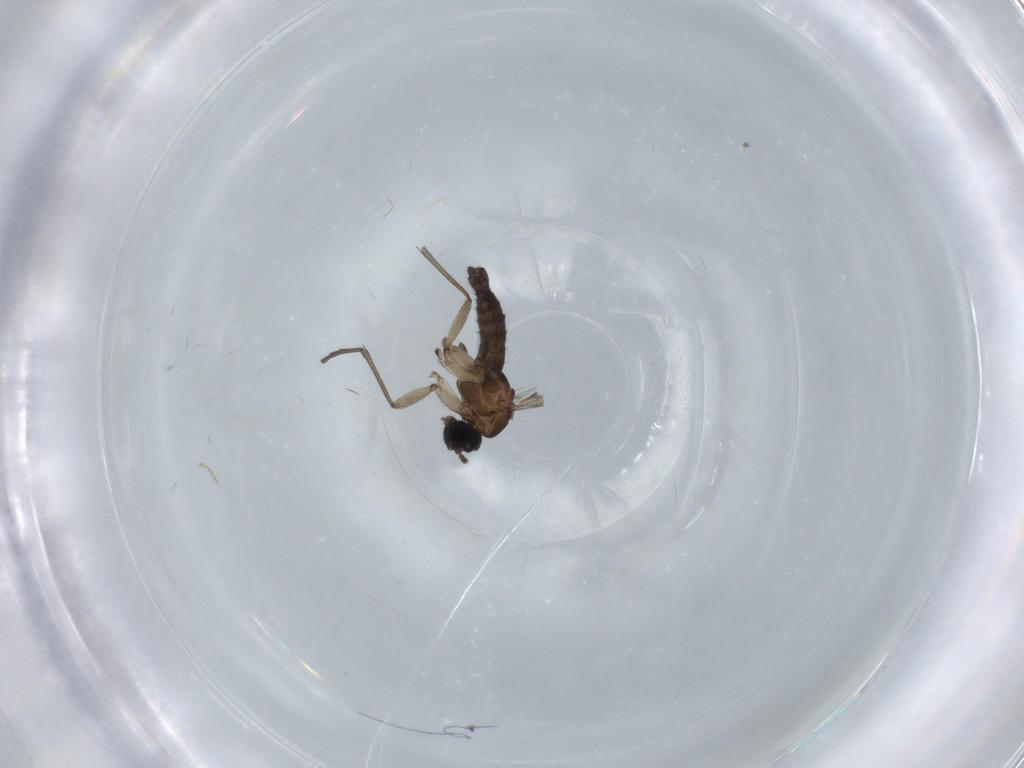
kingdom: Animalia
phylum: Arthropoda
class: Insecta
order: Diptera
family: Sciaridae
